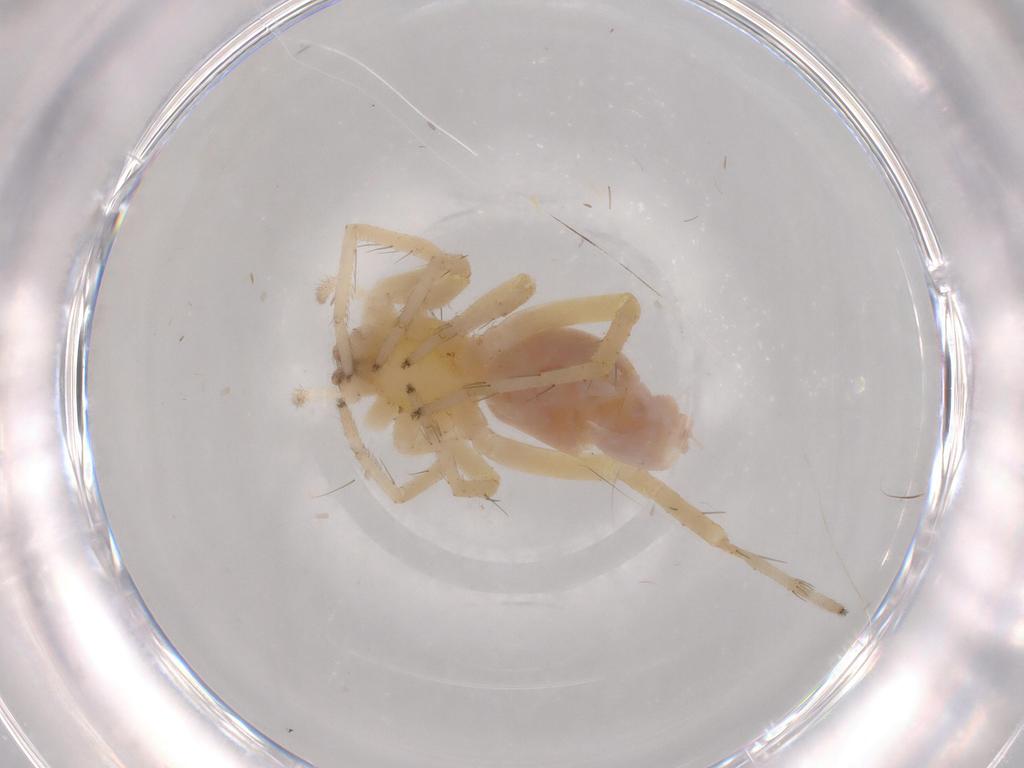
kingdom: Animalia
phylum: Arthropoda
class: Arachnida
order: Araneae
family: Anyphaenidae
